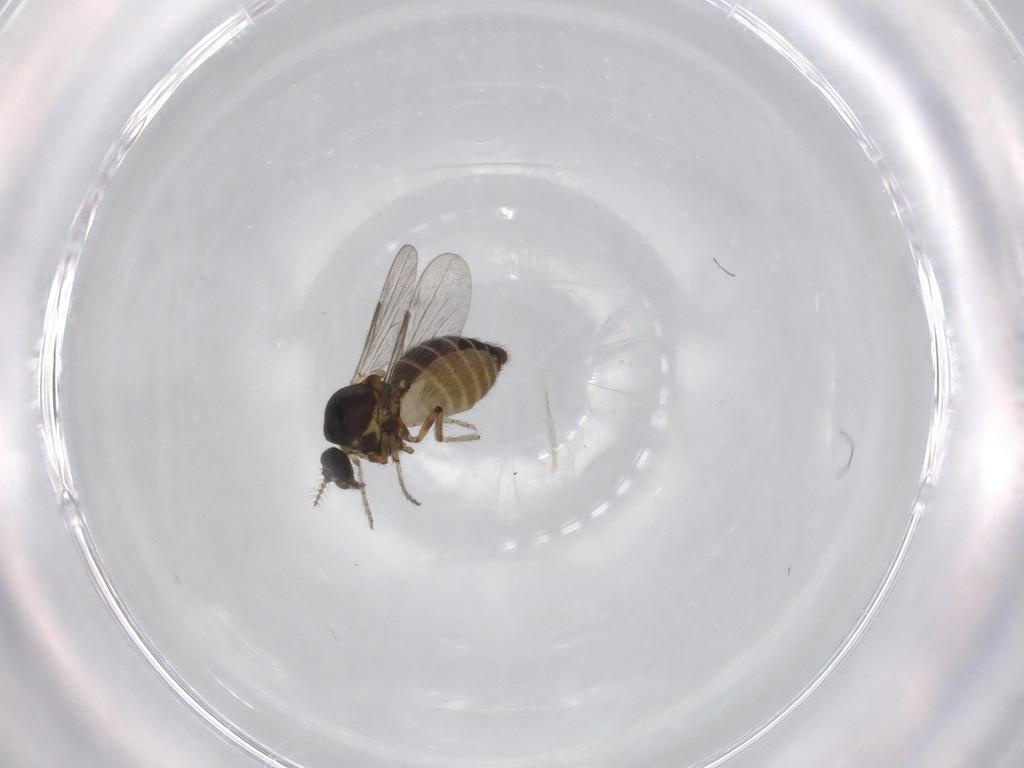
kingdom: Animalia
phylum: Arthropoda
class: Insecta
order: Diptera
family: Ceratopogonidae
